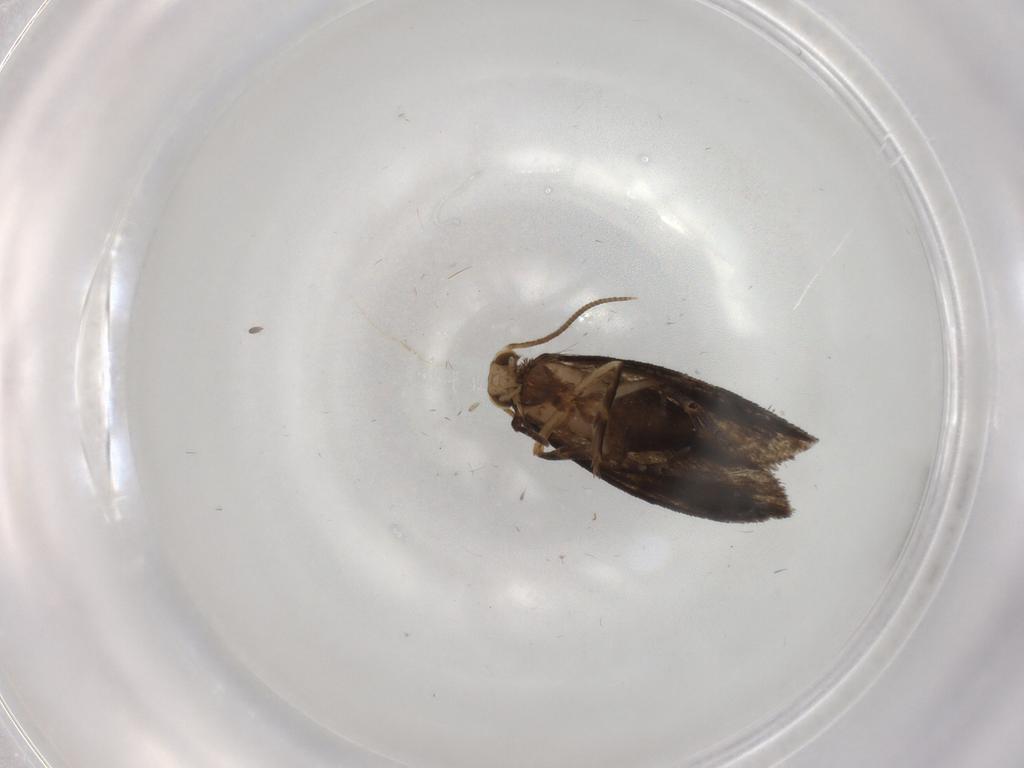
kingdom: Animalia
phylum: Arthropoda
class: Insecta
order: Lepidoptera
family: Tineidae
